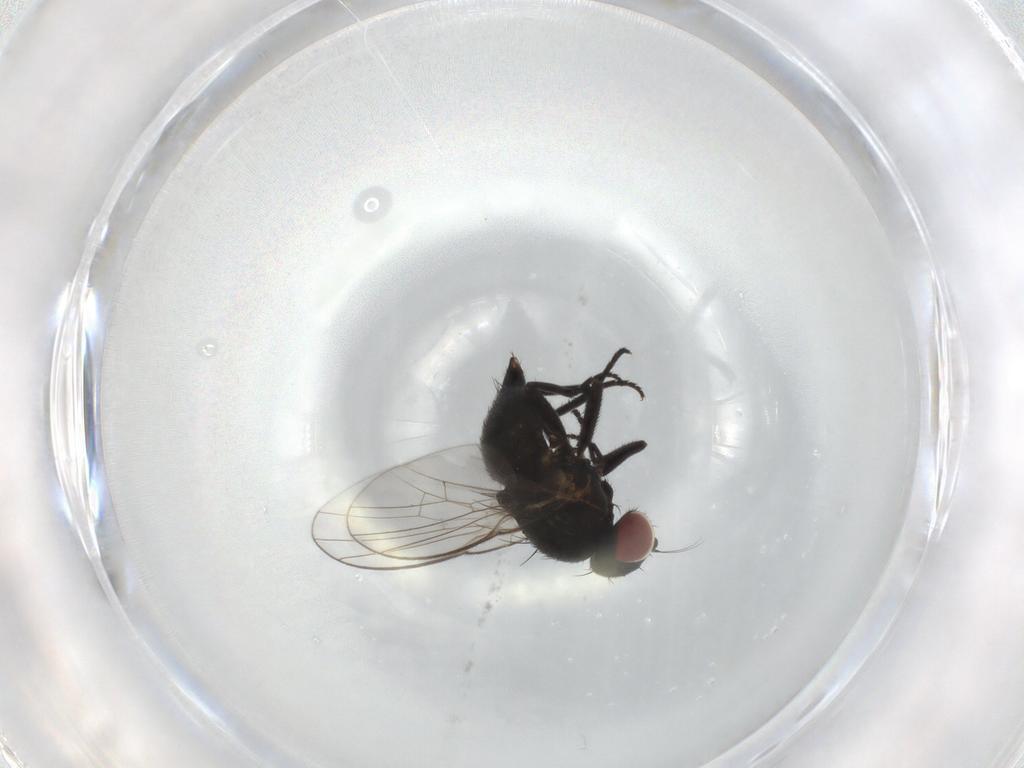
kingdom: Animalia
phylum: Arthropoda
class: Insecta
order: Diptera
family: Agromyzidae
